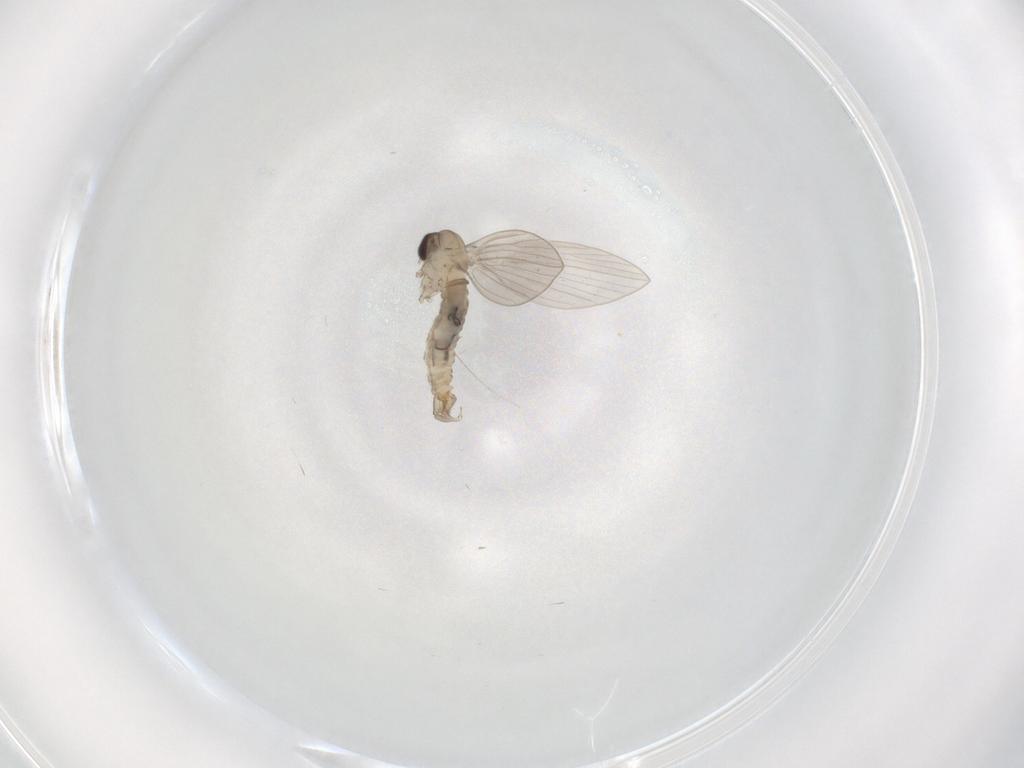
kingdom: Animalia
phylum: Arthropoda
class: Insecta
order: Diptera
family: Psychodidae
